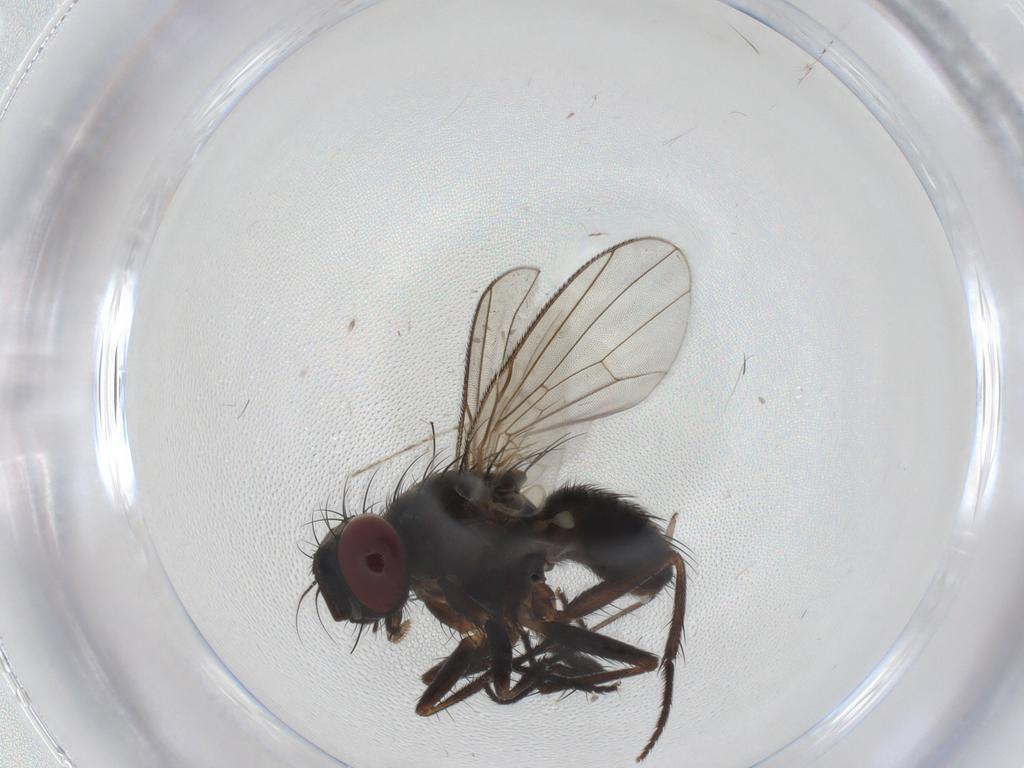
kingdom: Animalia
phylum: Arthropoda
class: Insecta
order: Diptera
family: Muscidae
